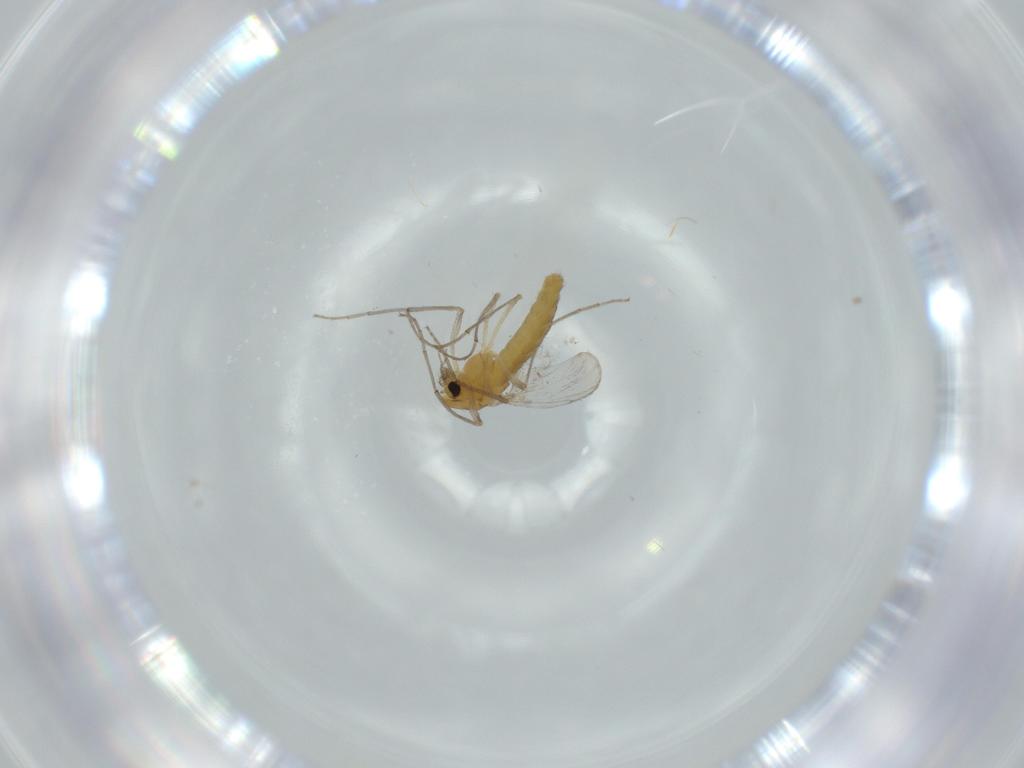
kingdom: Animalia
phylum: Arthropoda
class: Insecta
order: Diptera
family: Chironomidae
